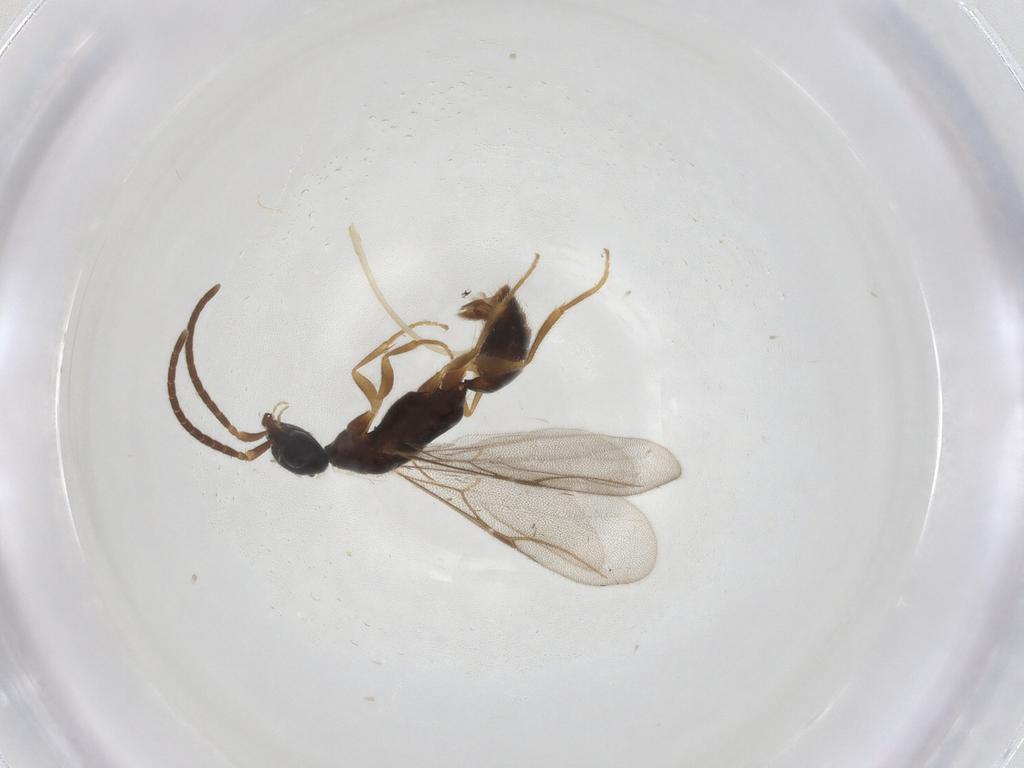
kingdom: Animalia
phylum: Arthropoda
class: Insecta
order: Hymenoptera
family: Bethylidae
